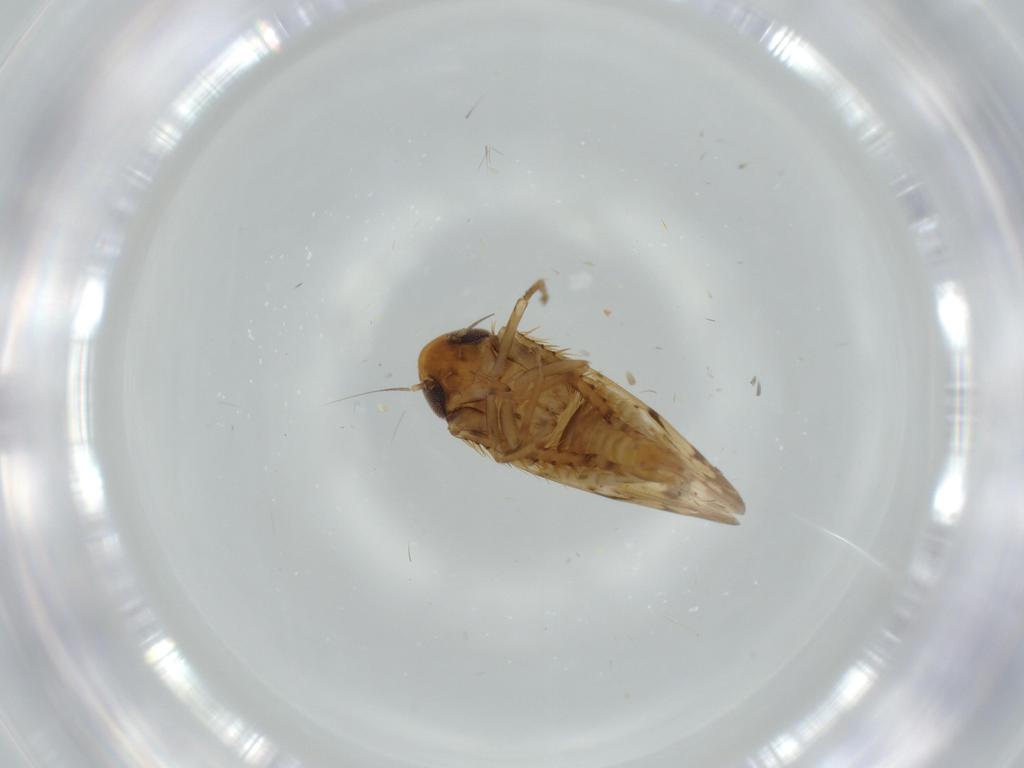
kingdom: Animalia
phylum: Arthropoda
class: Insecta
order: Hemiptera
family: Cicadellidae
